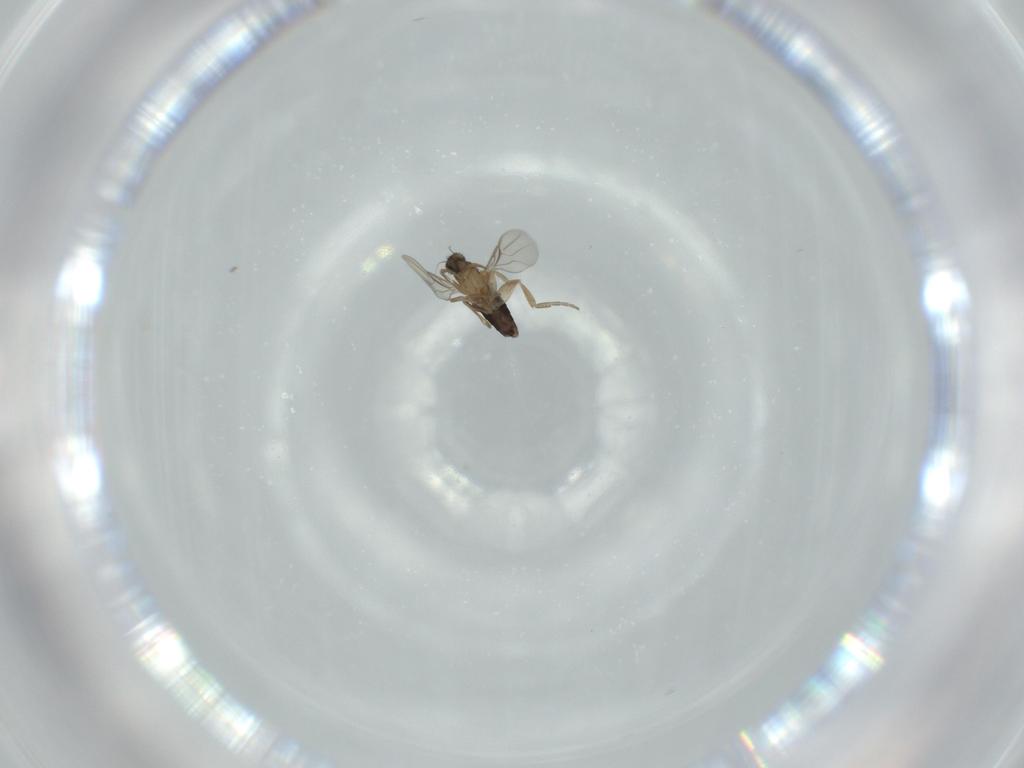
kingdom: Animalia
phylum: Arthropoda
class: Insecta
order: Diptera
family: Phoridae
